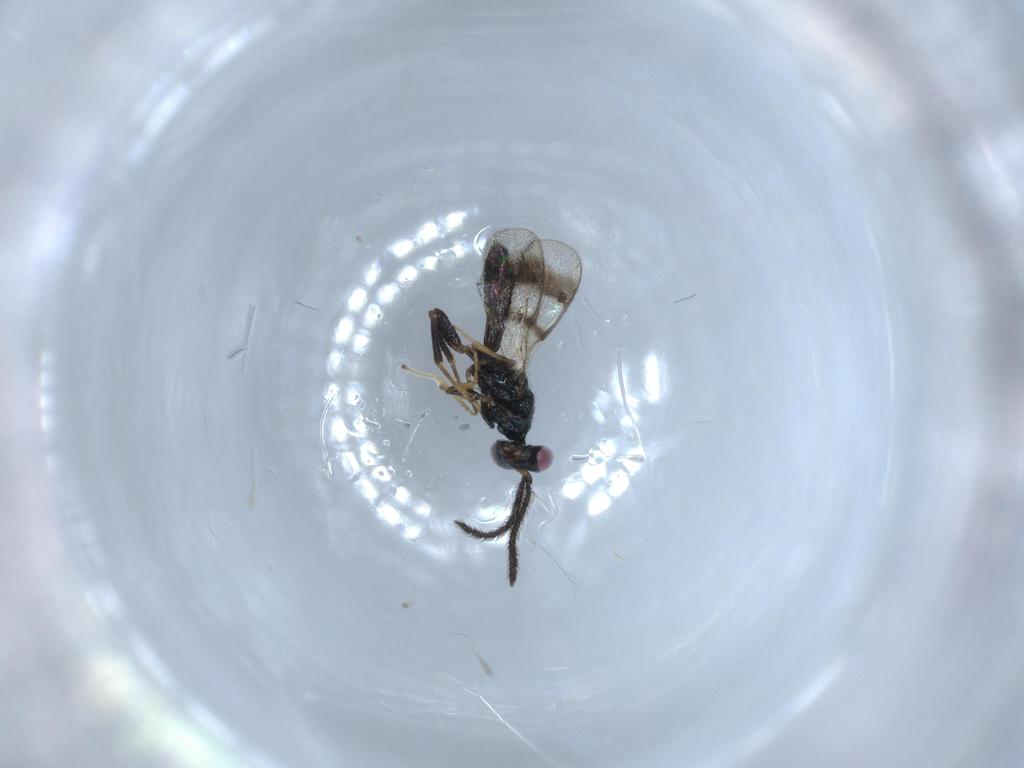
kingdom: Animalia
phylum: Arthropoda
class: Insecta
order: Hymenoptera
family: Pteromalidae
